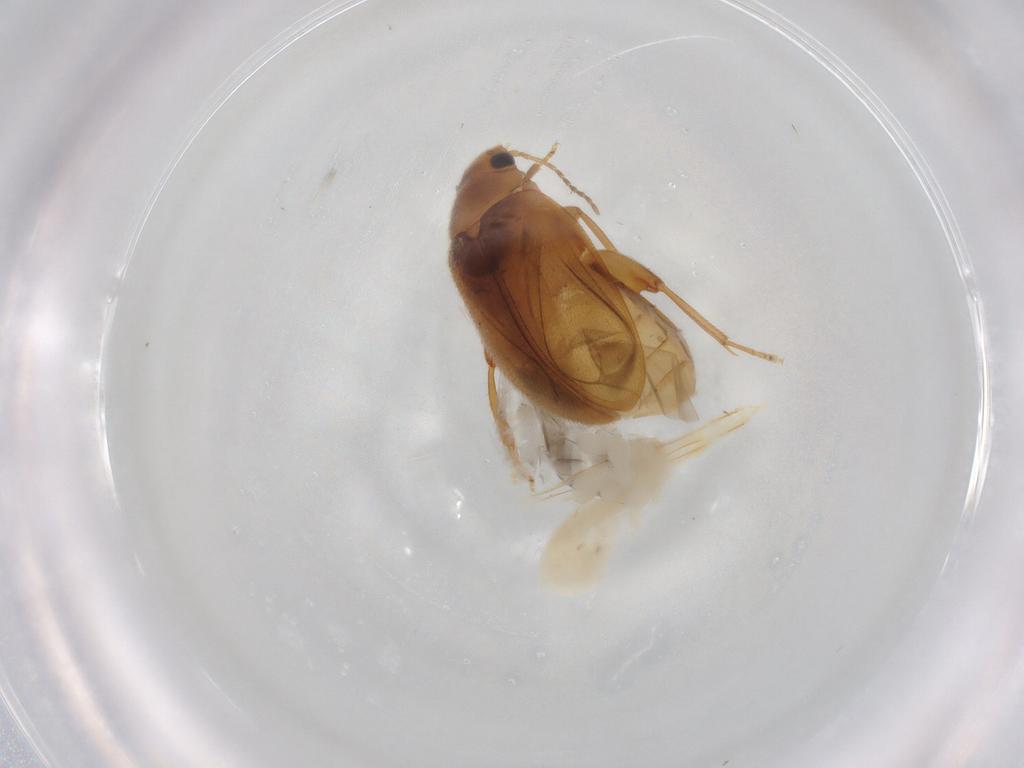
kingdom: Animalia
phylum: Arthropoda
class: Insecta
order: Coleoptera
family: Scirtidae
